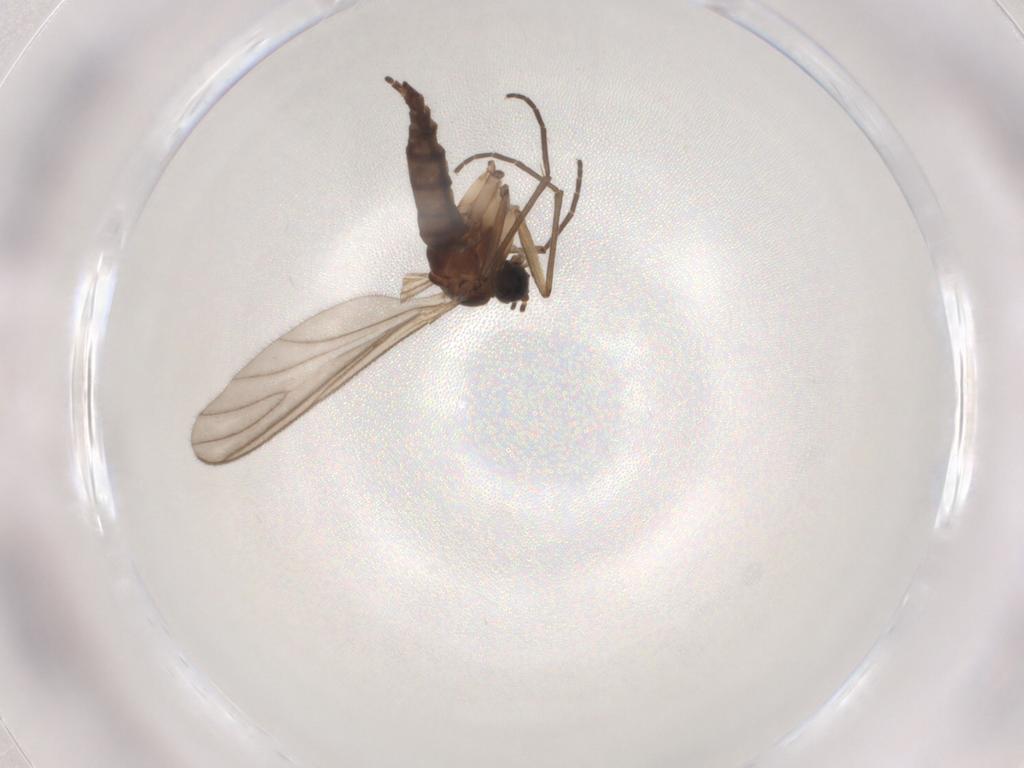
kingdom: Animalia
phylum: Arthropoda
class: Insecta
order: Diptera
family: Sciaridae
